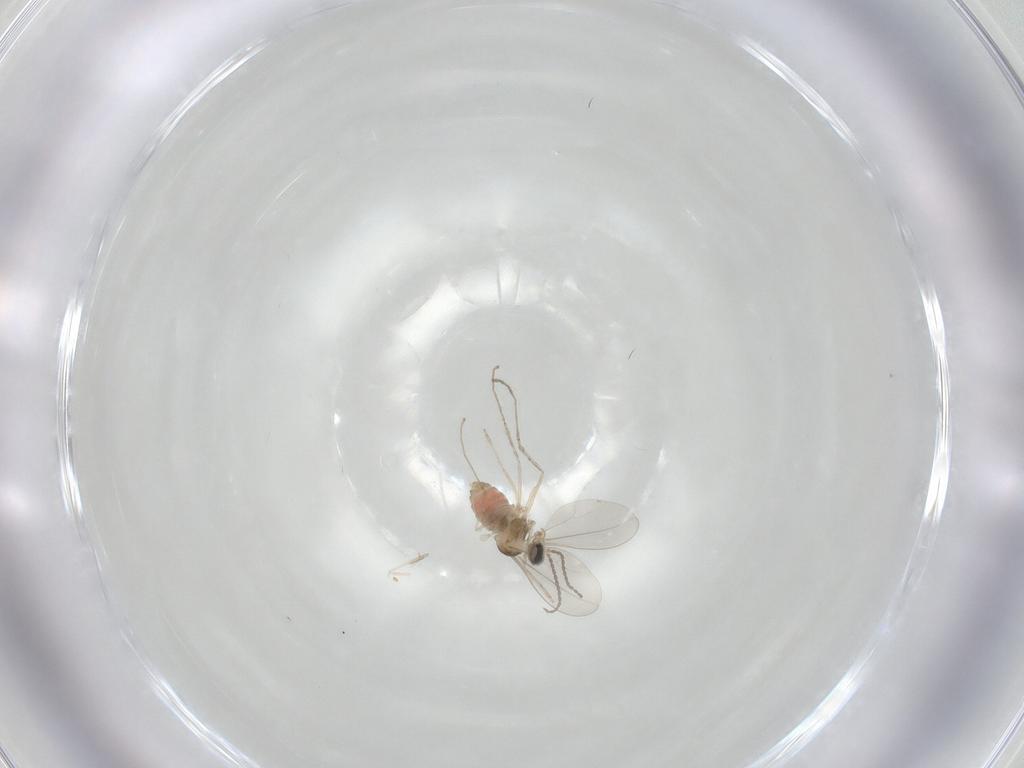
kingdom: Animalia
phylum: Arthropoda
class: Insecta
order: Diptera
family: Cecidomyiidae
